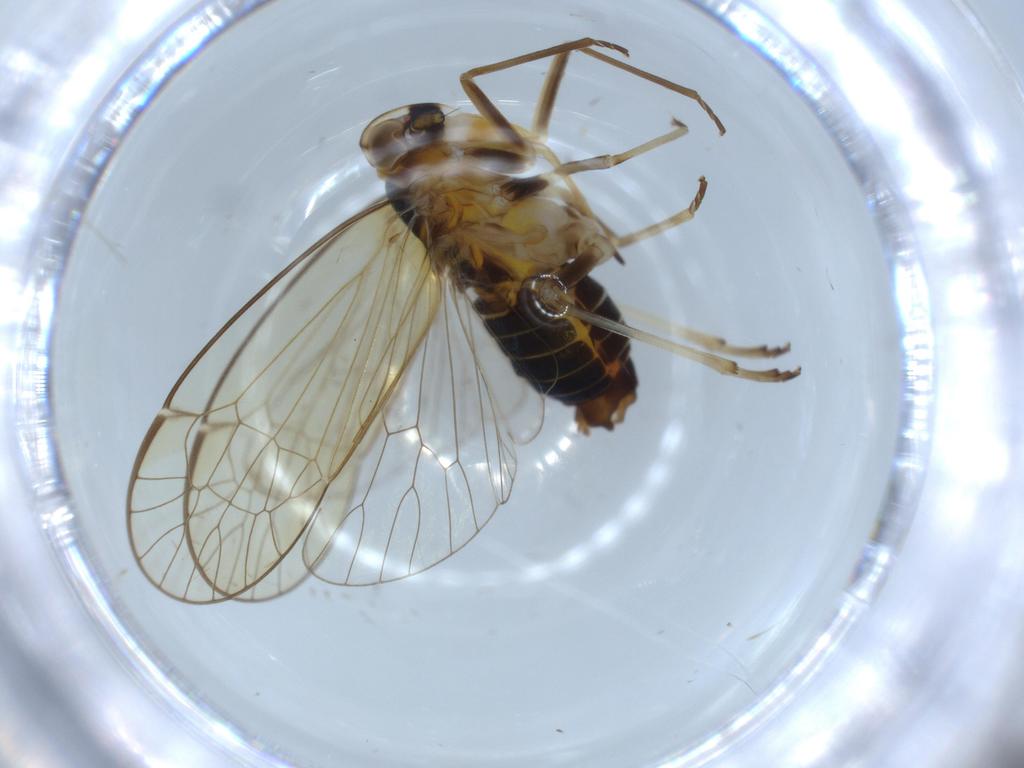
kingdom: Animalia
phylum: Arthropoda
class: Insecta
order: Hemiptera
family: Kinnaridae
